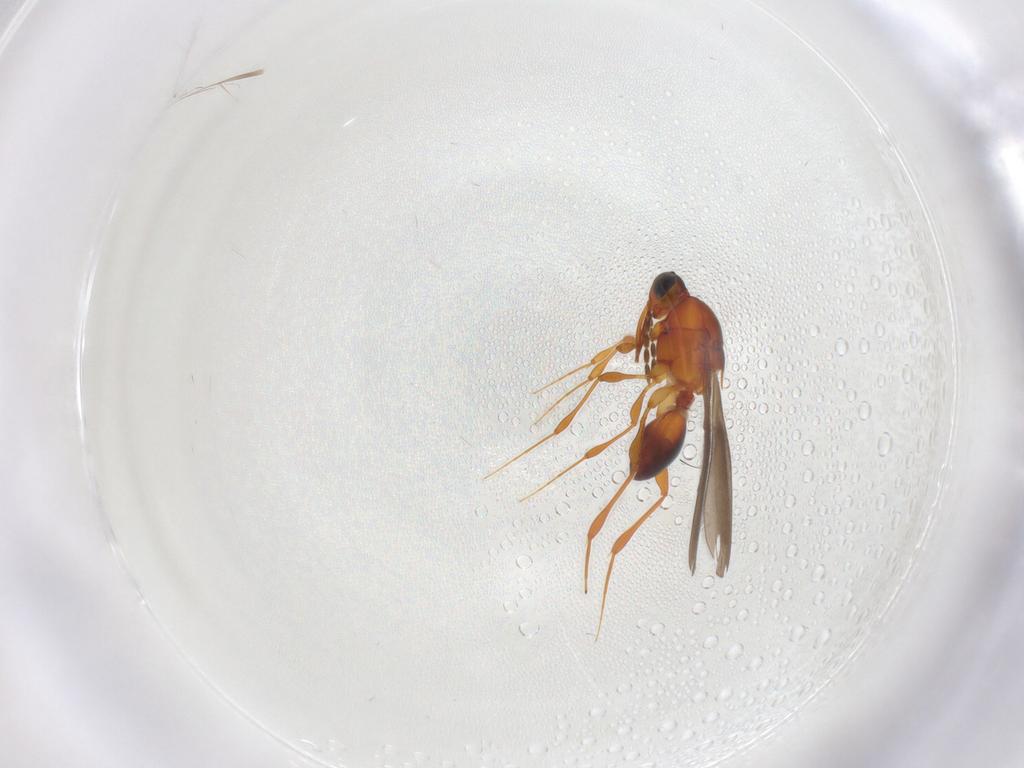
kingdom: Animalia
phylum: Arthropoda
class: Insecta
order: Hymenoptera
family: Platygastridae
